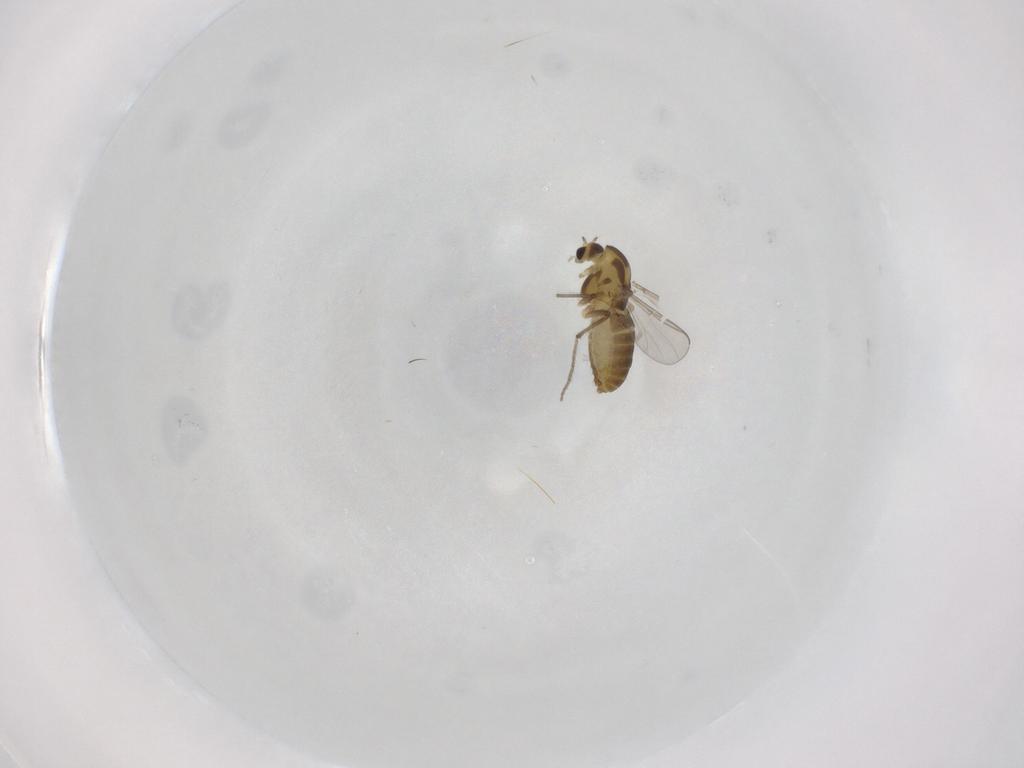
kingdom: Animalia
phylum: Arthropoda
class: Insecta
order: Diptera
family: Chironomidae
